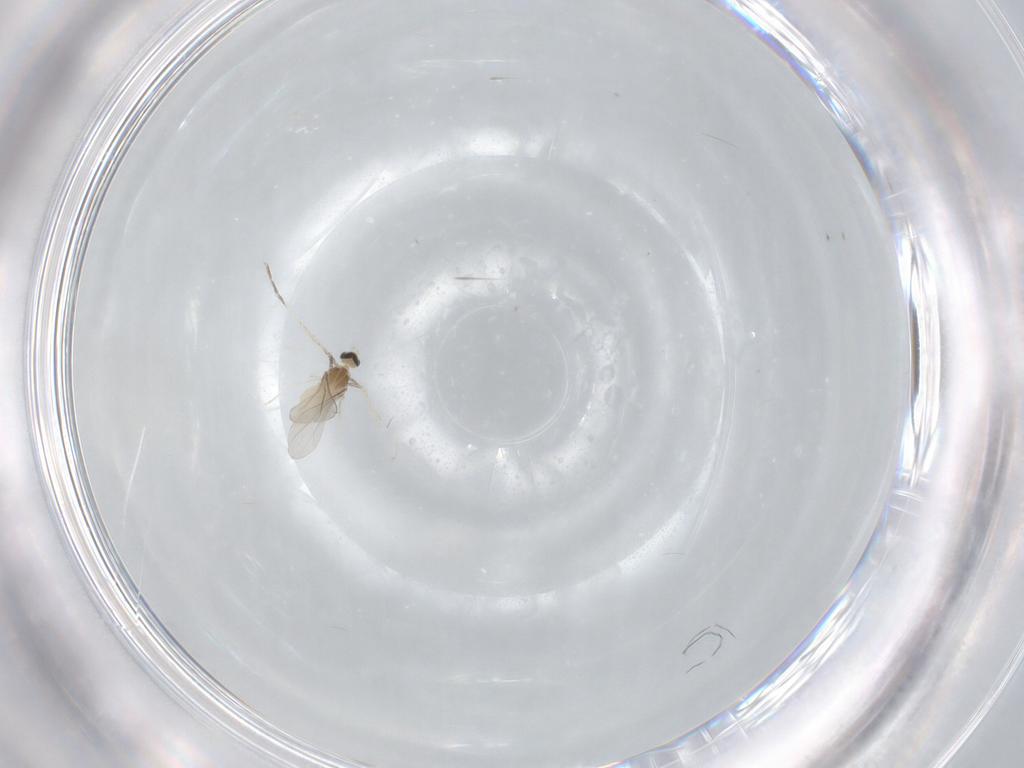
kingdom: Animalia
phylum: Arthropoda
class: Insecta
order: Diptera
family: Cecidomyiidae
